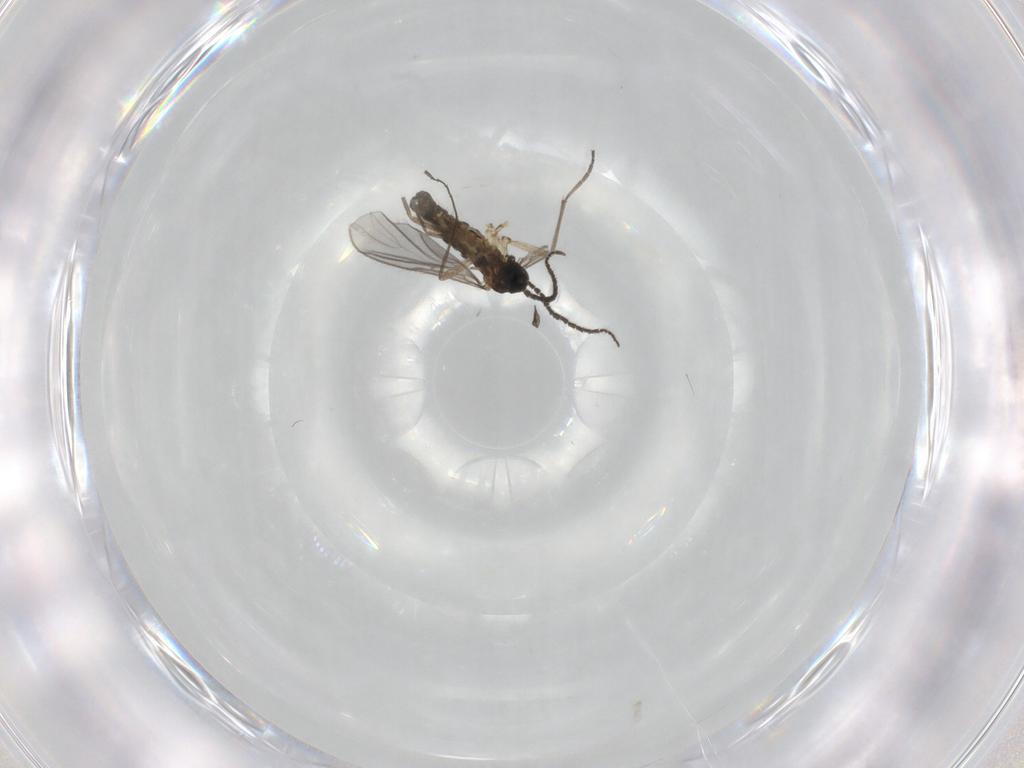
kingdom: Animalia
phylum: Arthropoda
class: Insecta
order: Diptera
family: Sciaridae
